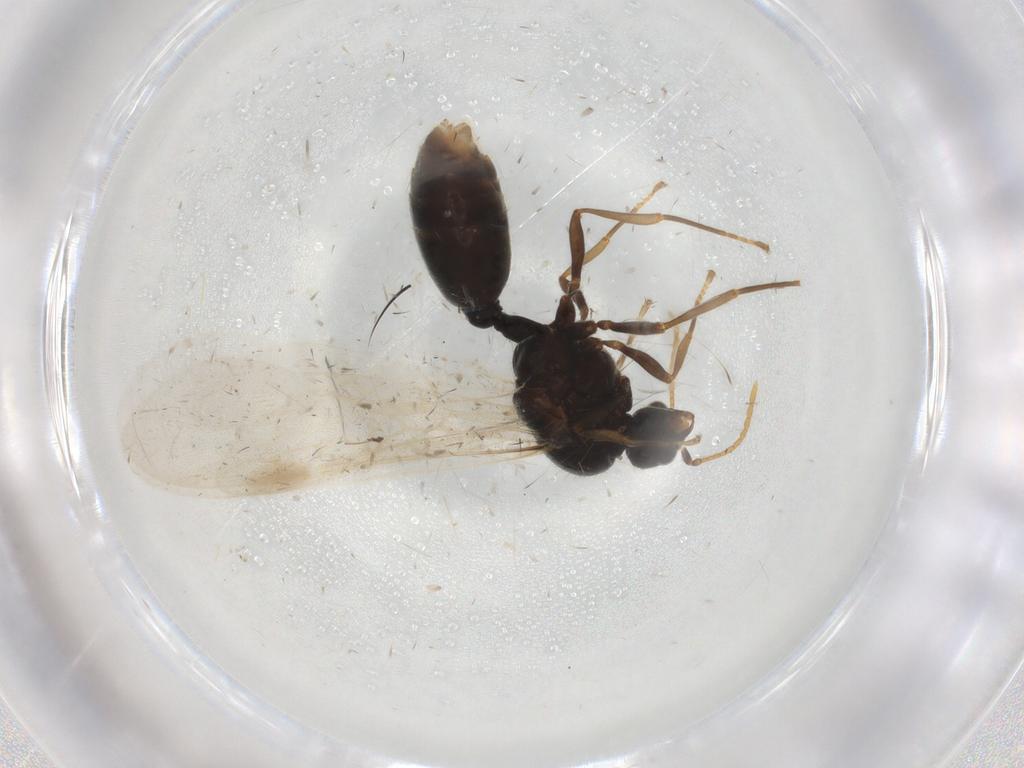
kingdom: Animalia
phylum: Arthropoda
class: Insecta
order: Hymenoptera
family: Formicidae
